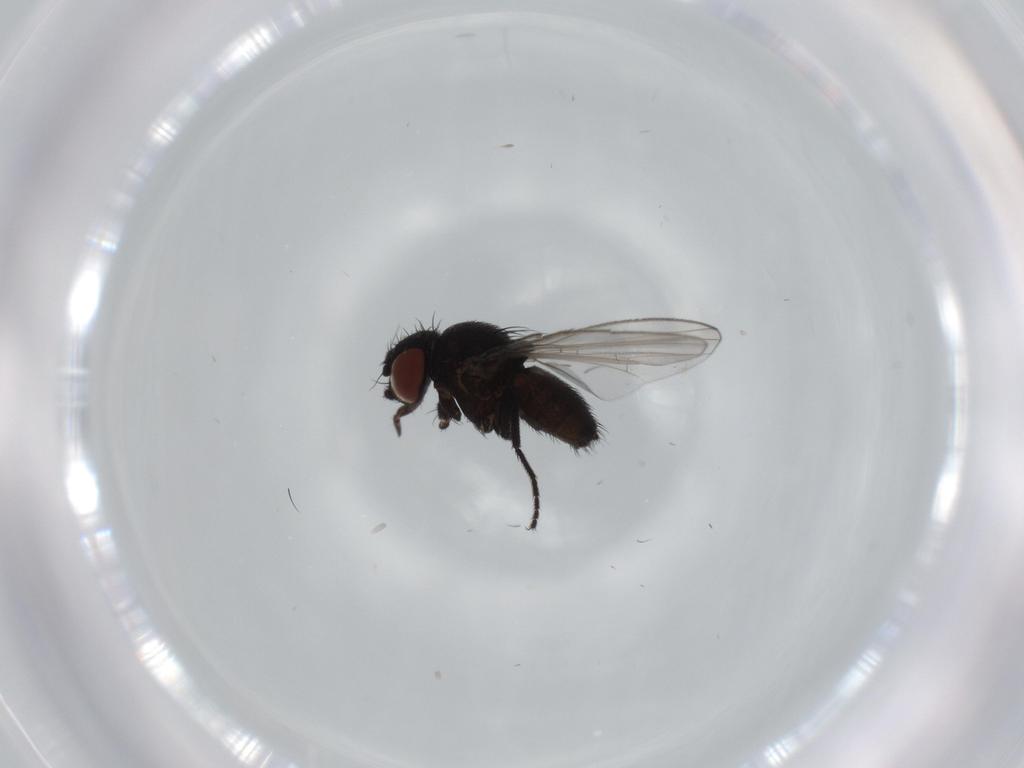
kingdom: Animalia
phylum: Arthropoda
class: Insecta
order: Diptera
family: Milichiidae
